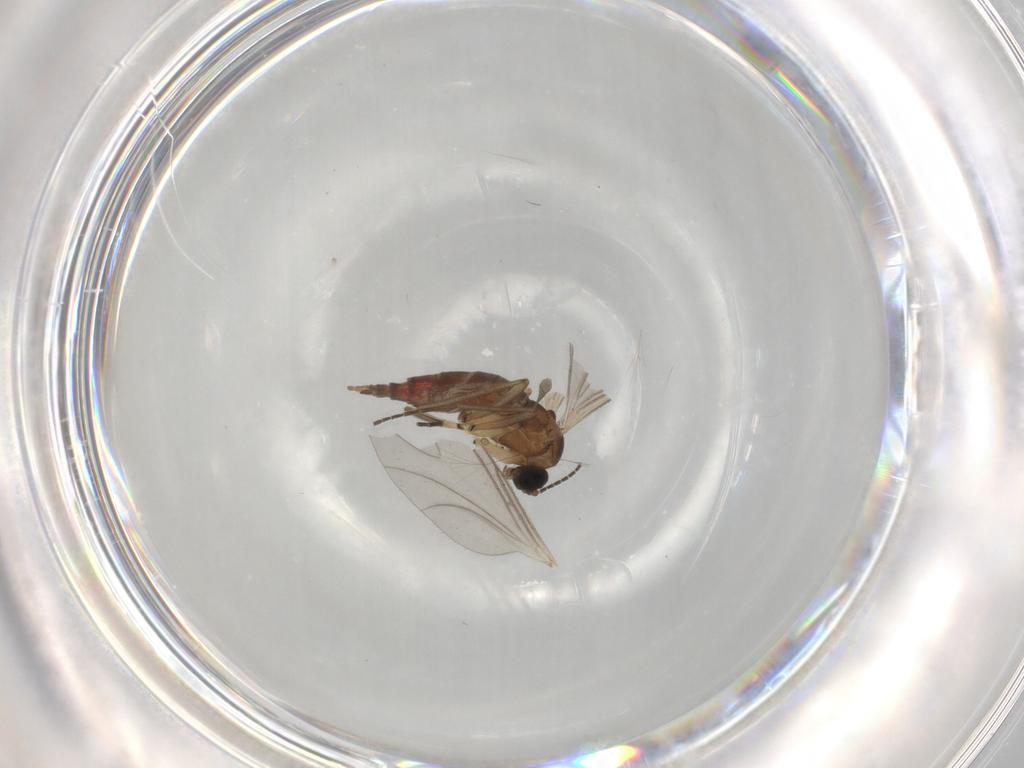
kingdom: Animalia
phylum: Arthropoda
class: Insecta
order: Diptera
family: Sciaridae
